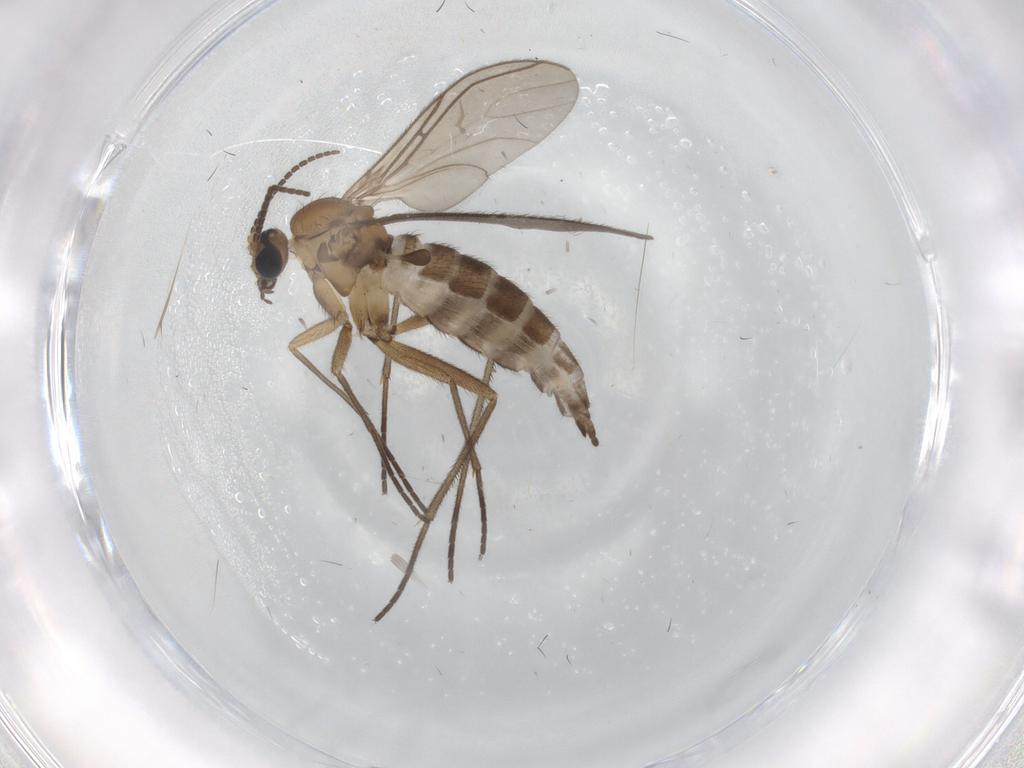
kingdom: Animalia
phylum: Arthropoda
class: Insecta
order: Diptera
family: Sciaridae
